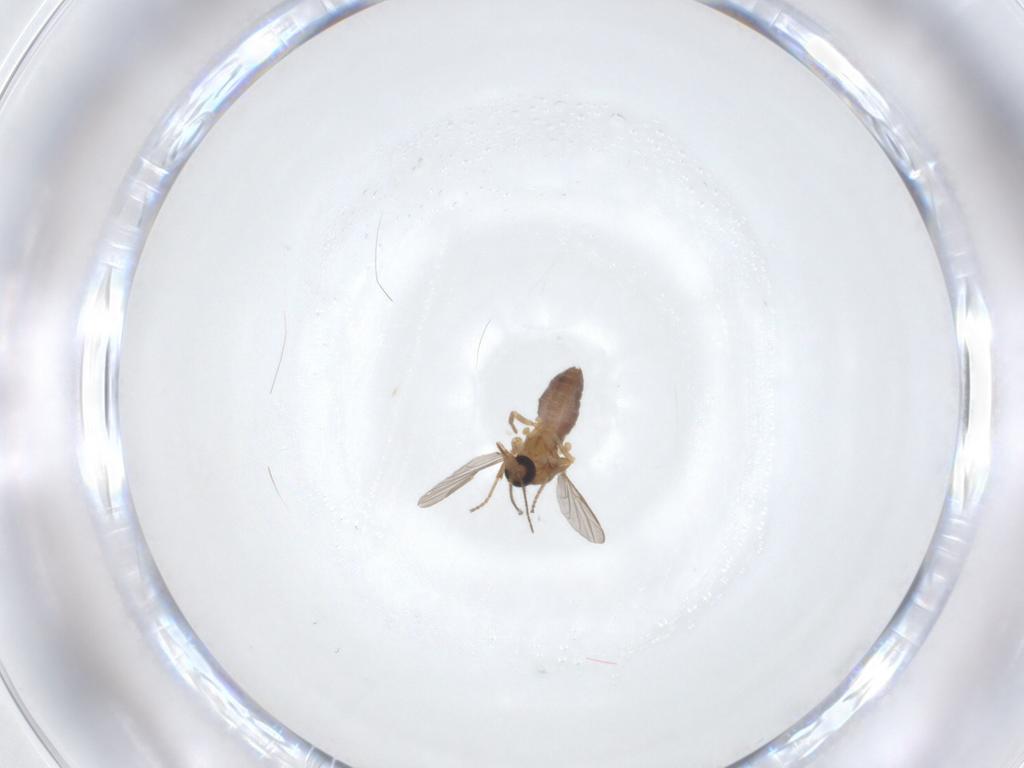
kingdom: Animalia
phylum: Arthropoda
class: Insecta
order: Diptera
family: Ceratopogonidae
